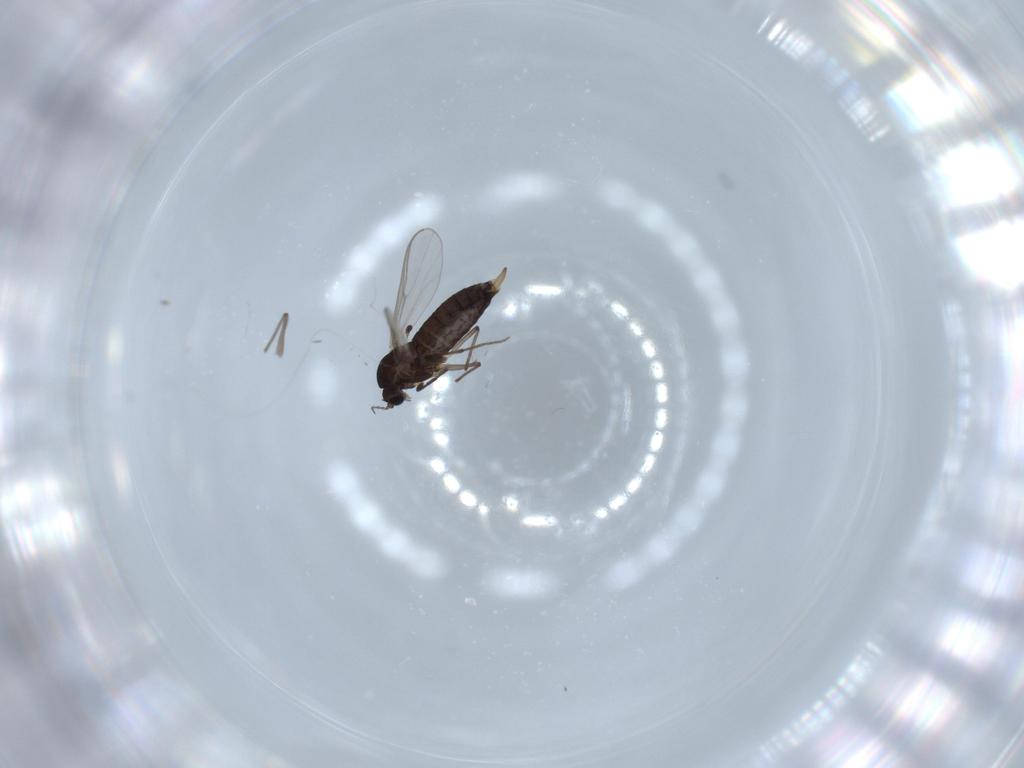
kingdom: Animalia
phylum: Arthropoda
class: Insecta
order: Diptera
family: Chironomidae
